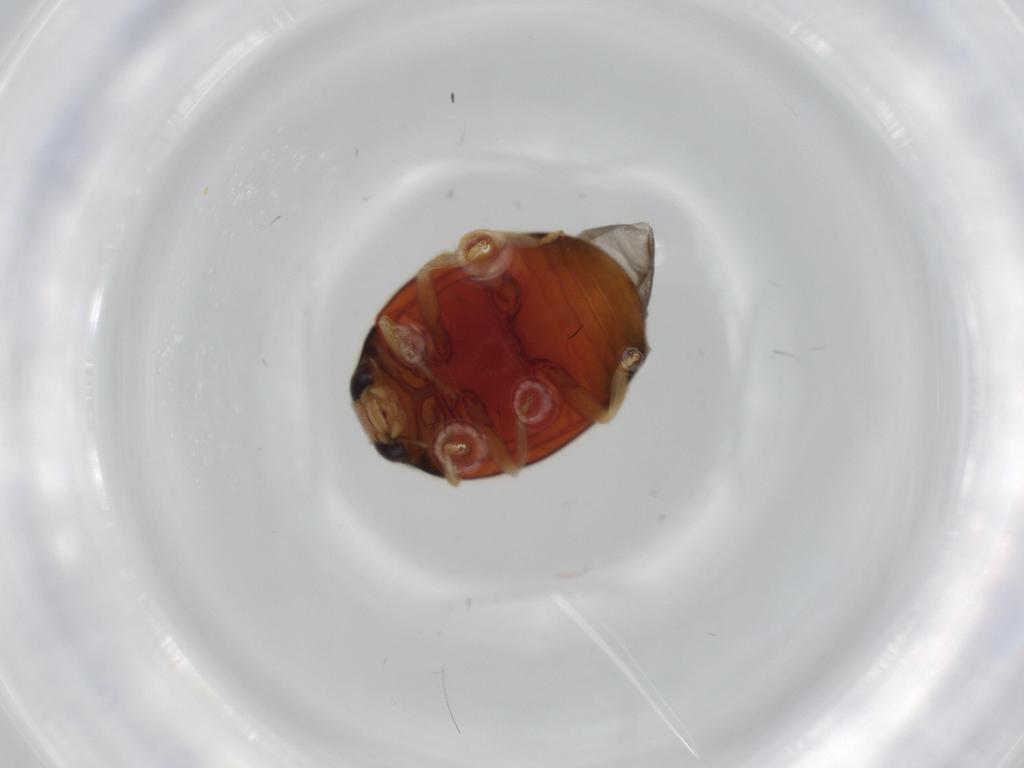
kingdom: Animalia
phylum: Arthropoda
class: Insecta
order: Coleoptera
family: Coccinellidae
